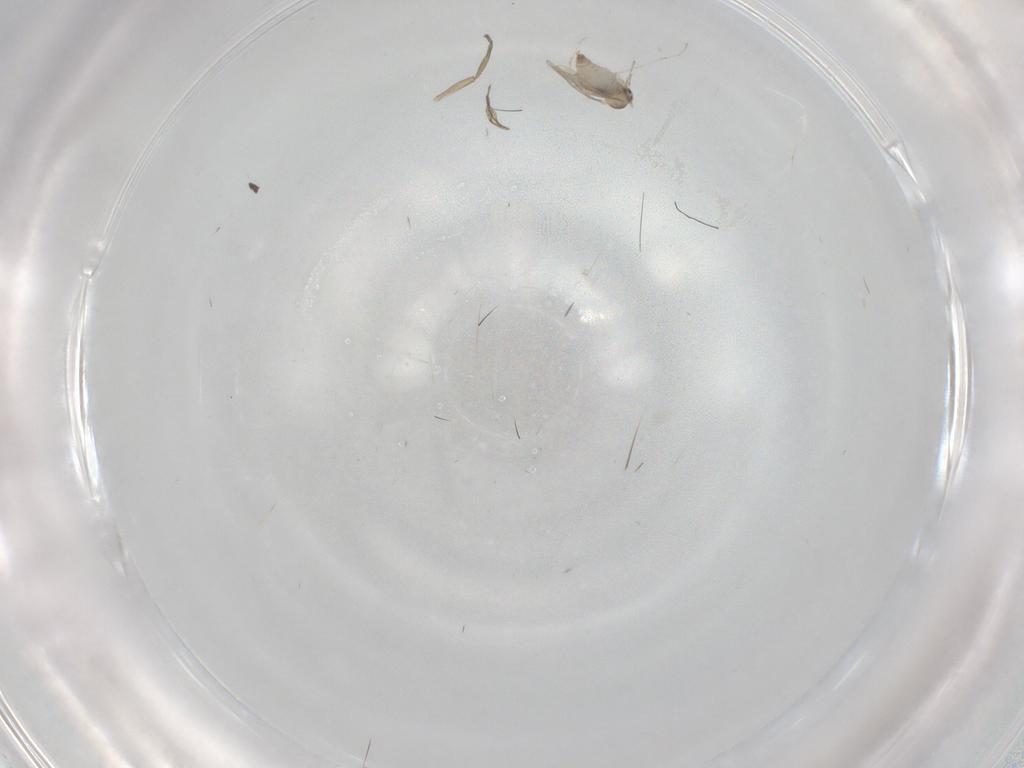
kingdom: Animalia
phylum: Arthropoda
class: Insecta
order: Diptera
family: Phoridae
